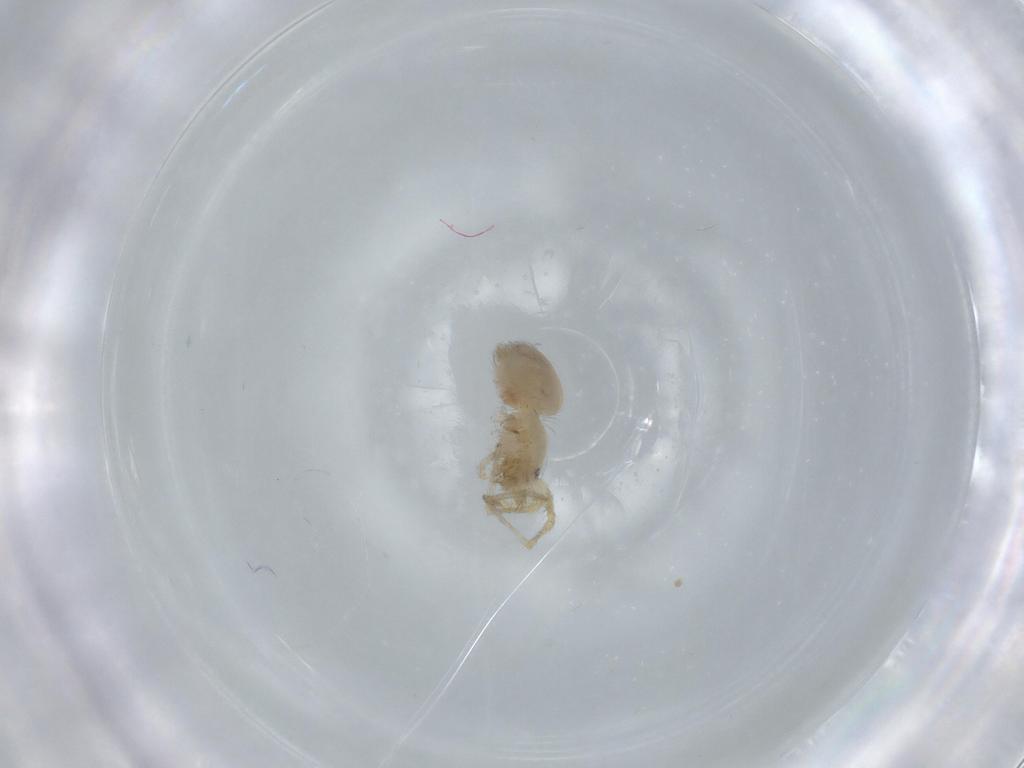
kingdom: Animalia
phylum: Arthropoda
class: Arachnida
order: Araneae
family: Oonopidae
